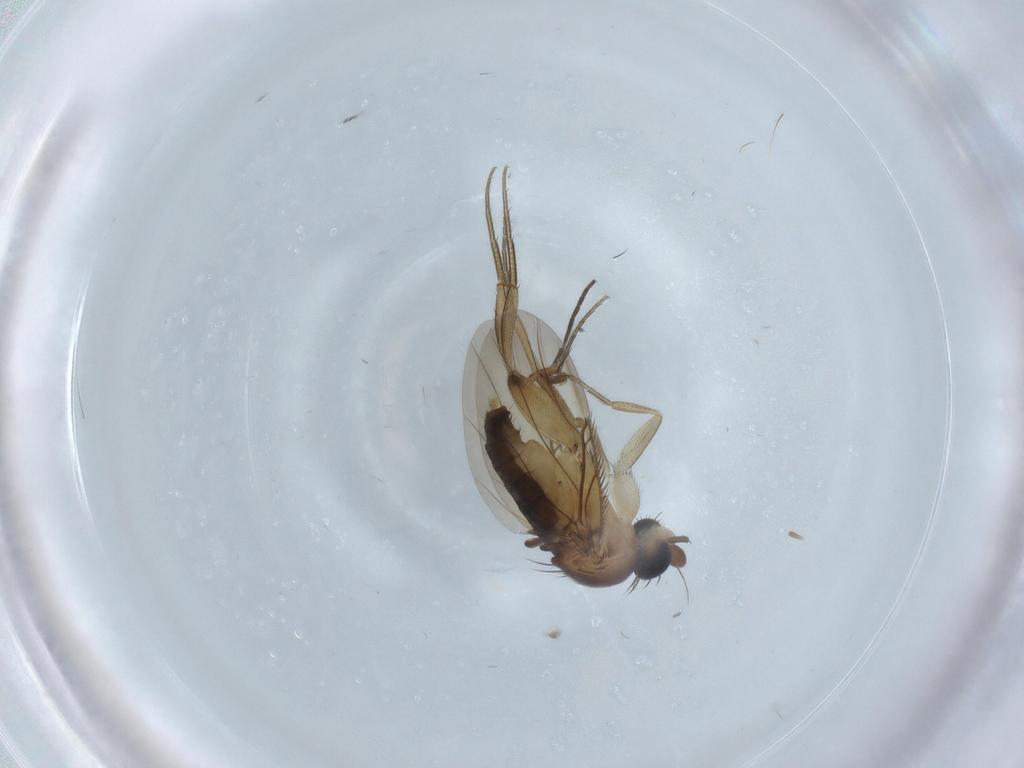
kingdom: Animalia
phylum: Arthropoda
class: Insecta
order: Diptera
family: Phoridae
